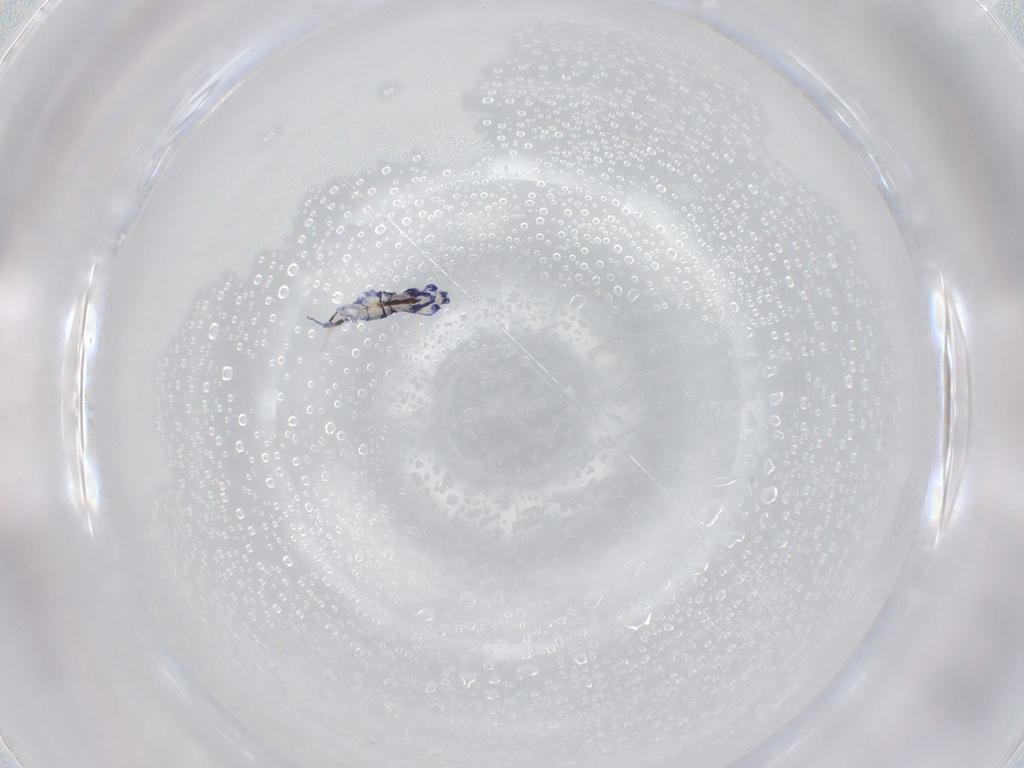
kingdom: Animalia
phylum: Arthropoda
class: Collembola
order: Entomobryomorpha
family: Entomobryidae
